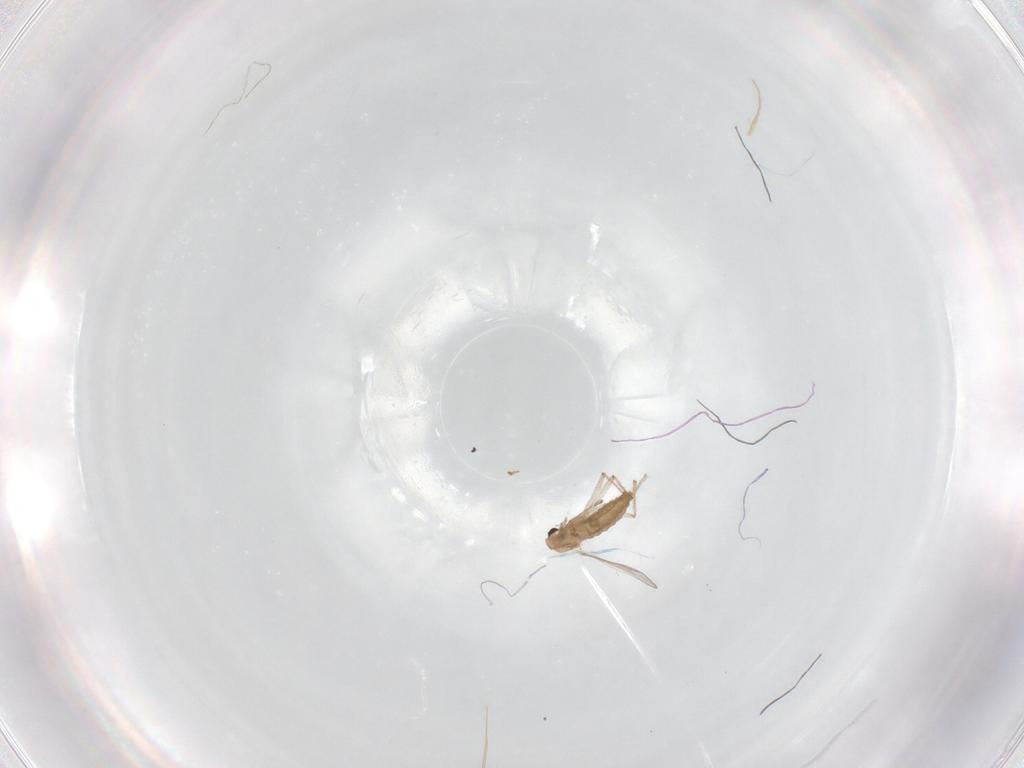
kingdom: Animalia
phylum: Arthropoda
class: Insecta
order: Diptera
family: Chironomidae
